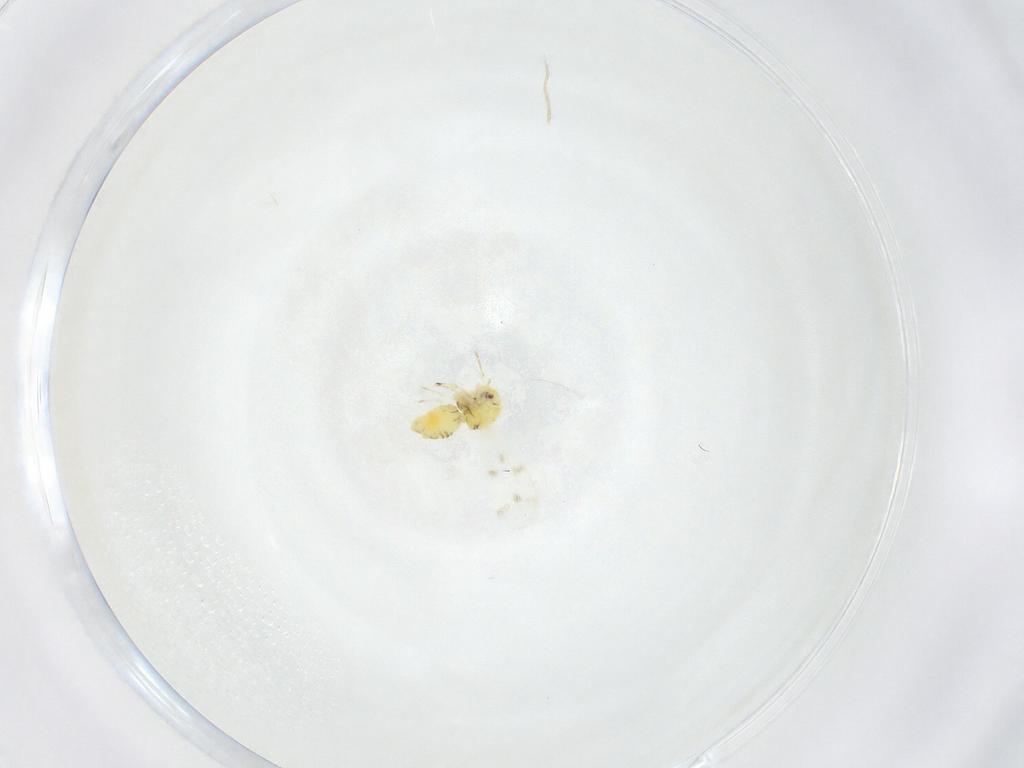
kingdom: Animalia
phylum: Arthropoda
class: Insecta
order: Hemiptera
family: Aleyrodidae
